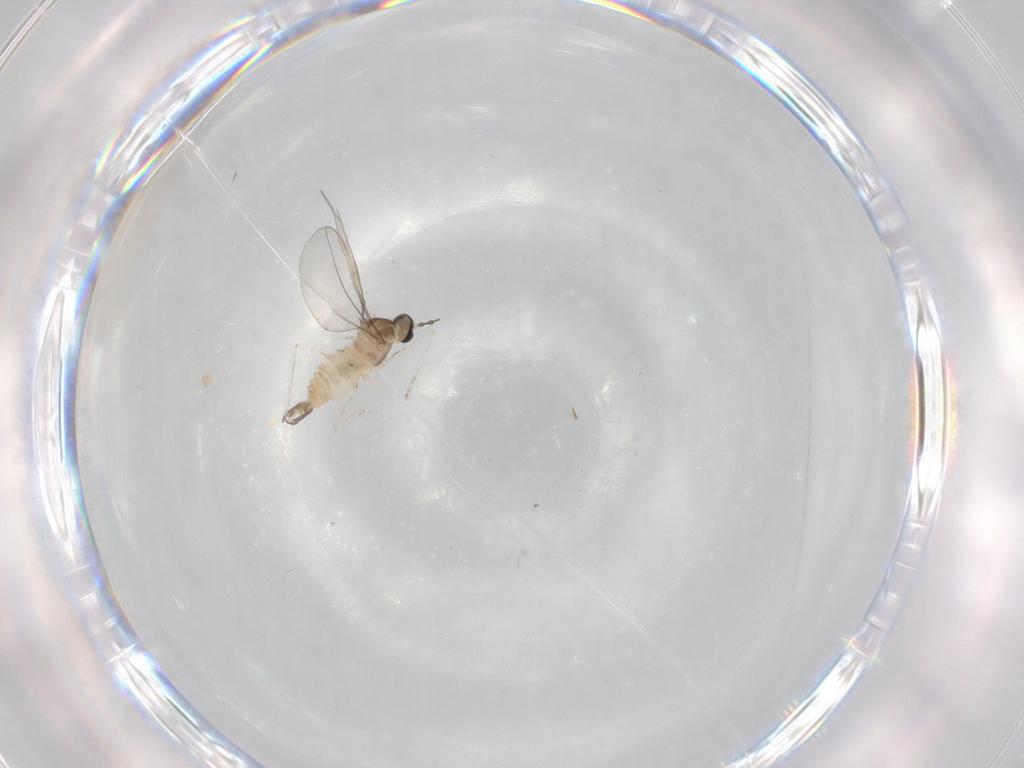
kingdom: Animalia
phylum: Arthropoda
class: Insecta
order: Diptera
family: Cecidomyiidae
